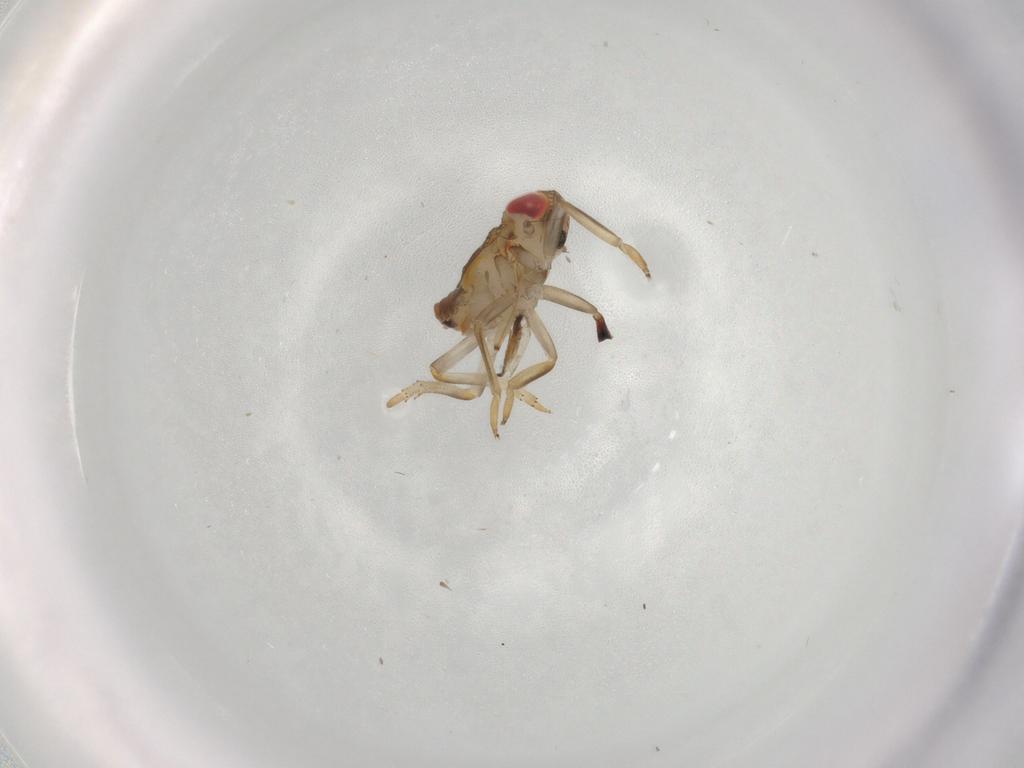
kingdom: Animalia
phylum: Arthropoda
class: Insecta
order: Hemiptera
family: Issidae
